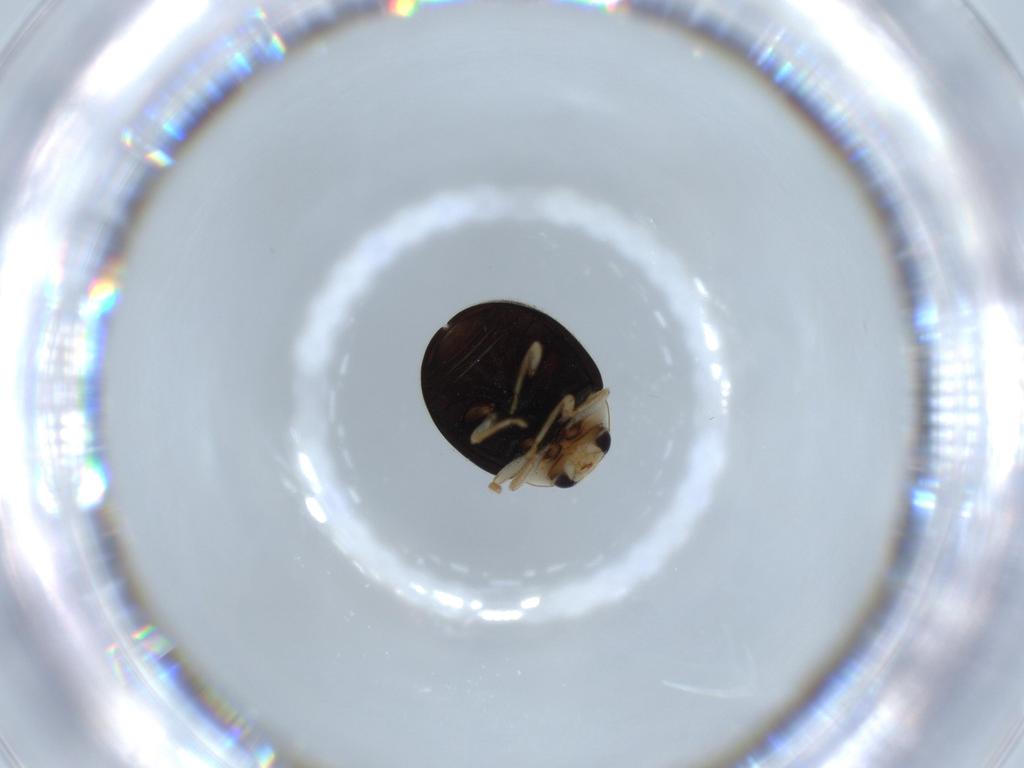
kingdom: Animalia
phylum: Arthropoda
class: Insecta
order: Coleoptera
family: Coccinellidae
